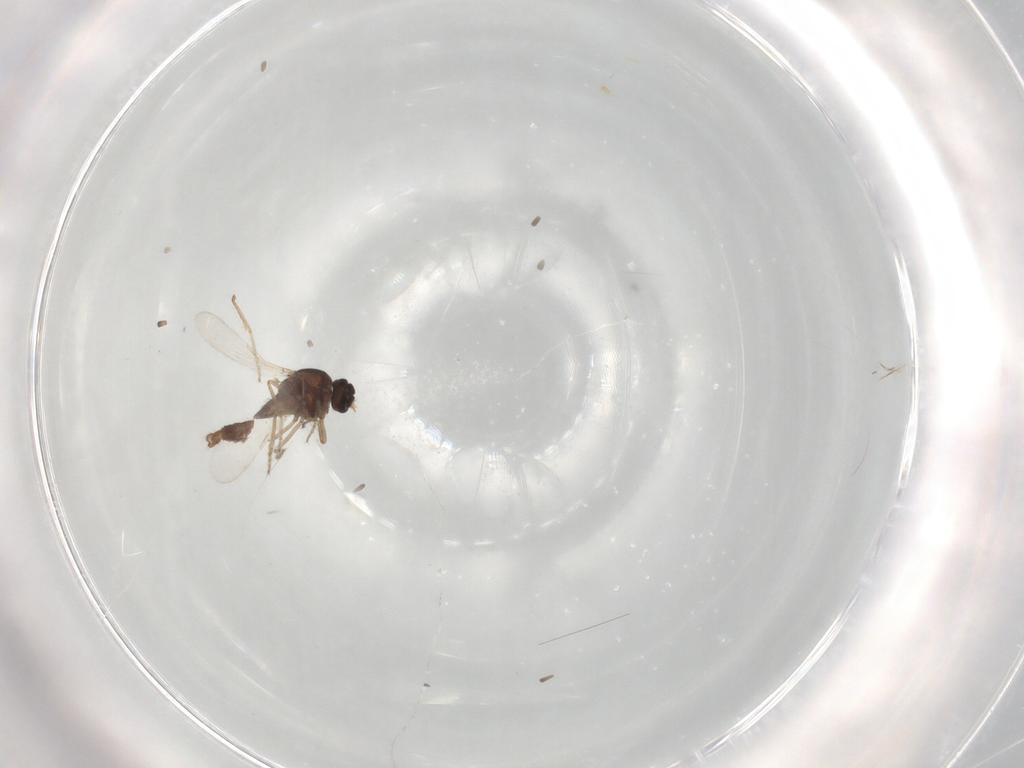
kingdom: Animalia
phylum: Arthropoda
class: Insecta
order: Diptera
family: Ceratopogonidae
